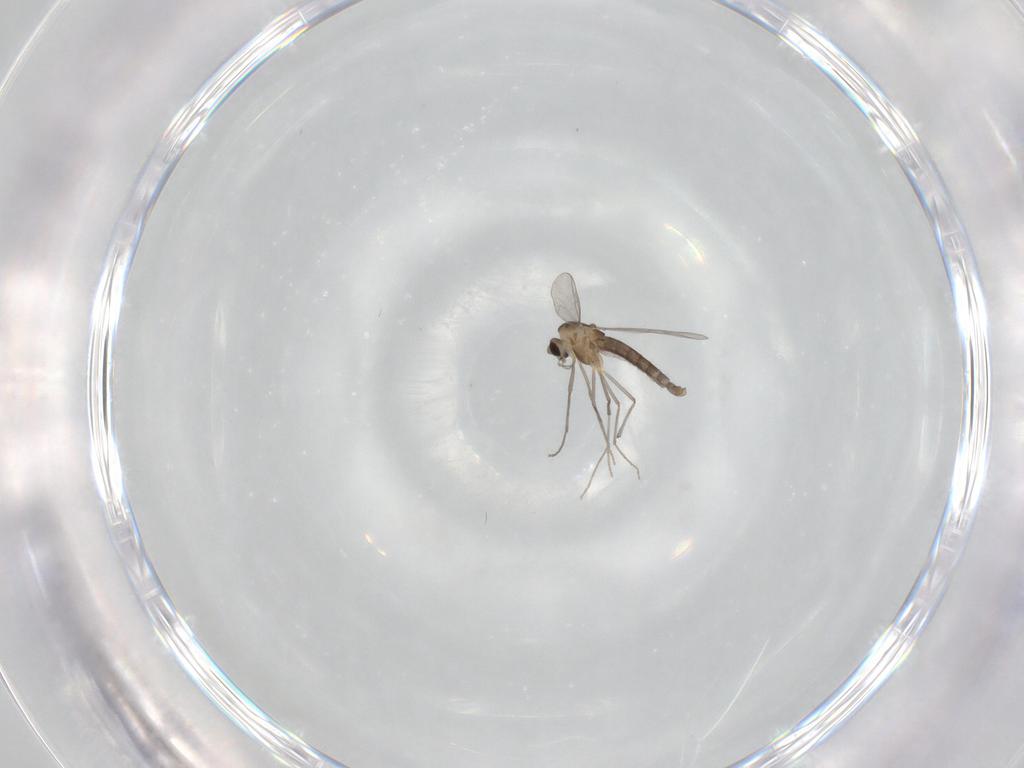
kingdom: Animalia
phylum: Arthropoda
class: Insecta
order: Diptera
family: Chironomidae
